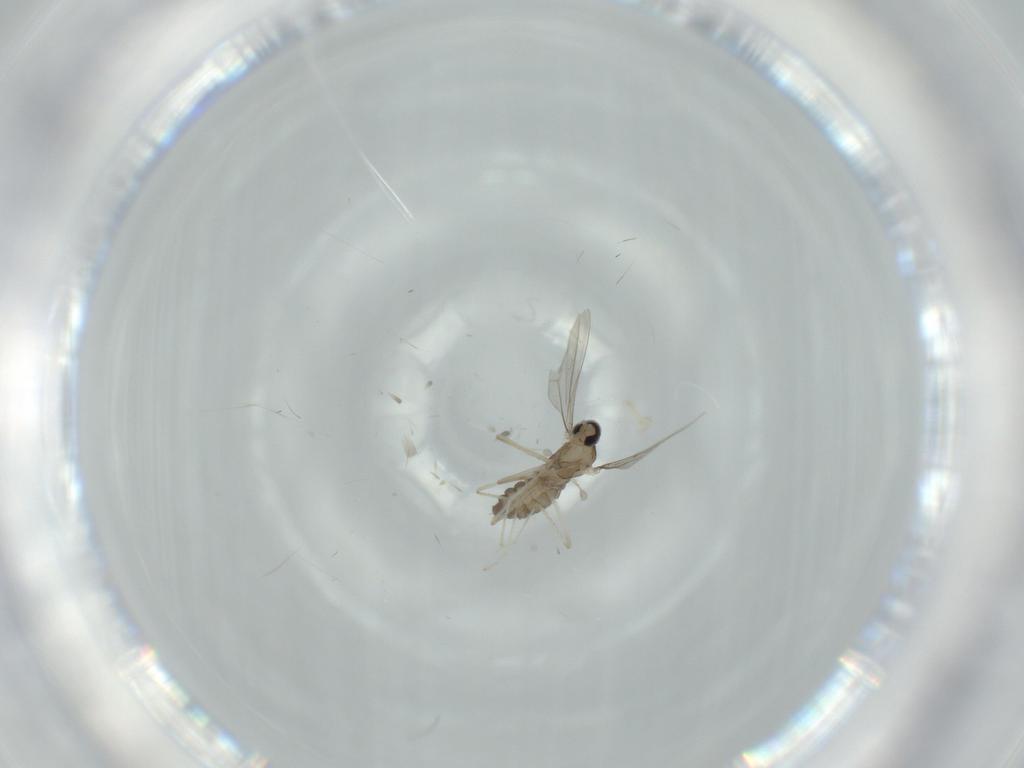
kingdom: Animalia
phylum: Arthropoda
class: Insecta
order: Diptera
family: Cecidomyiidae
